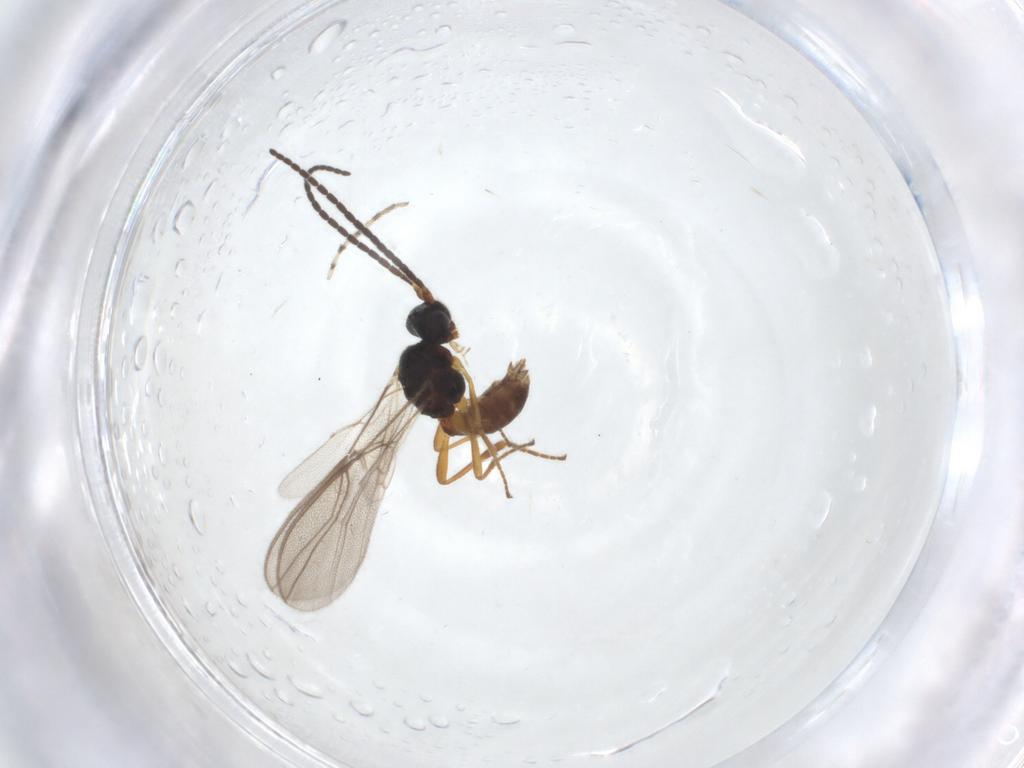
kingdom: Animalia
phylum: Arthropoda
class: Insecta
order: Hymenoptera
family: Braconidae
